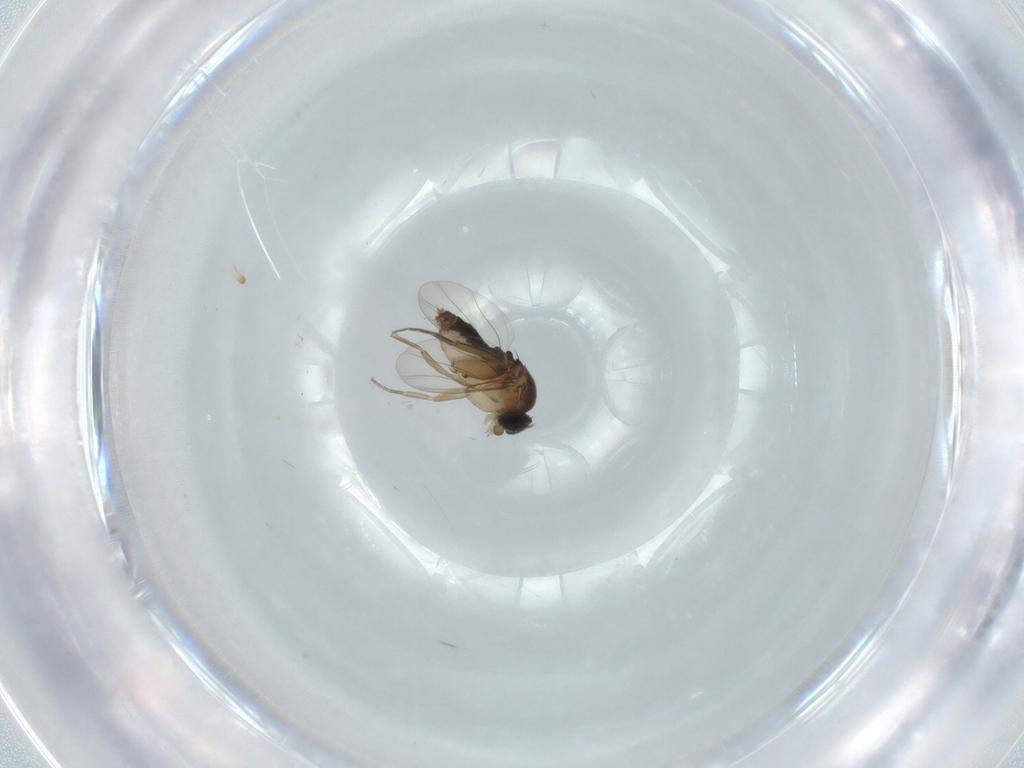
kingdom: Animalia
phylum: Arthropoda
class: Insecta
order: Diptera
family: Phoridae
